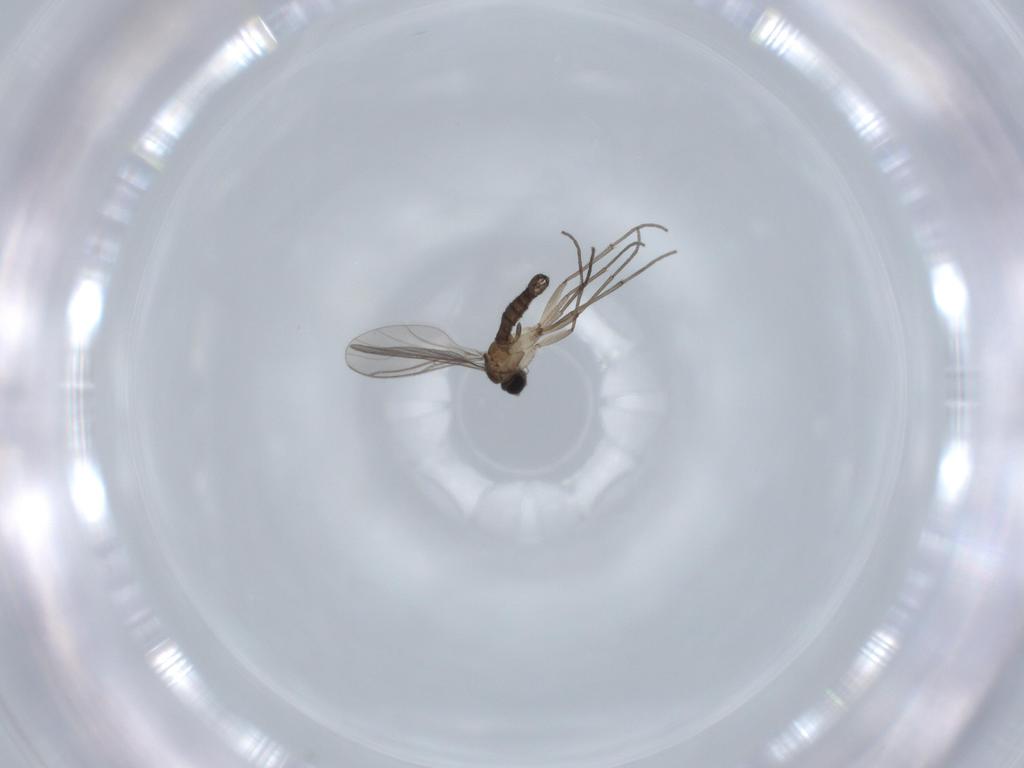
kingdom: Animalia
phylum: Arthropoda
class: Insecta
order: Diptera
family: Sciaridae
